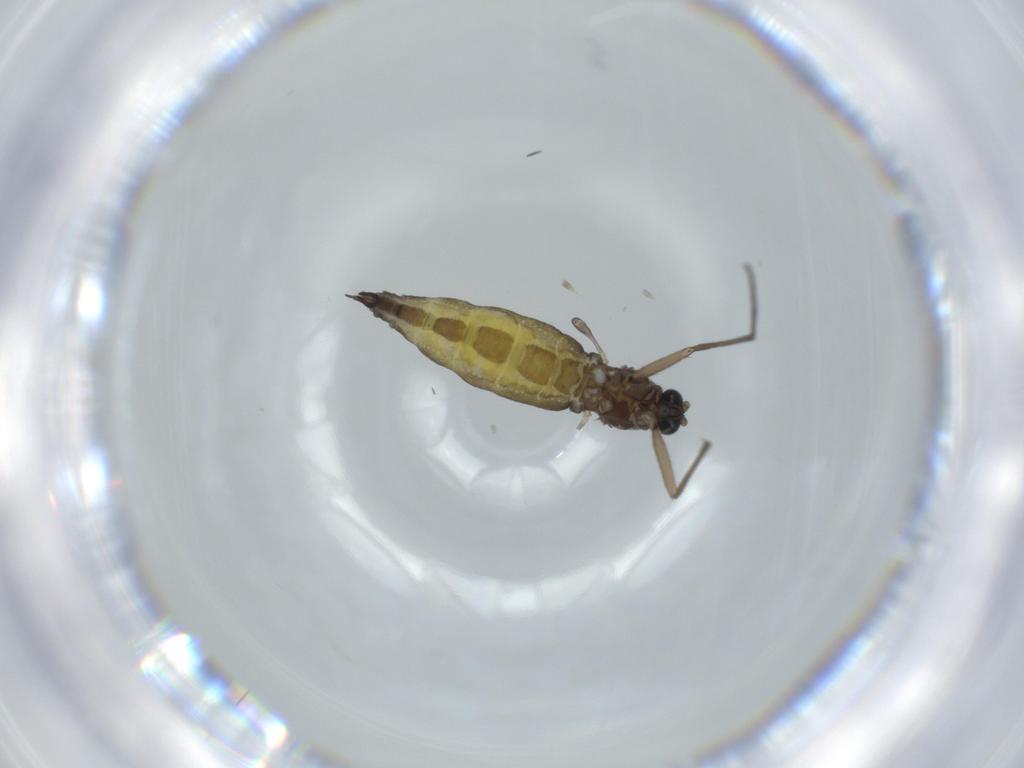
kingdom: Animalia
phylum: Arthropoda
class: Insecta
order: Diptera
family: Sciaridae
